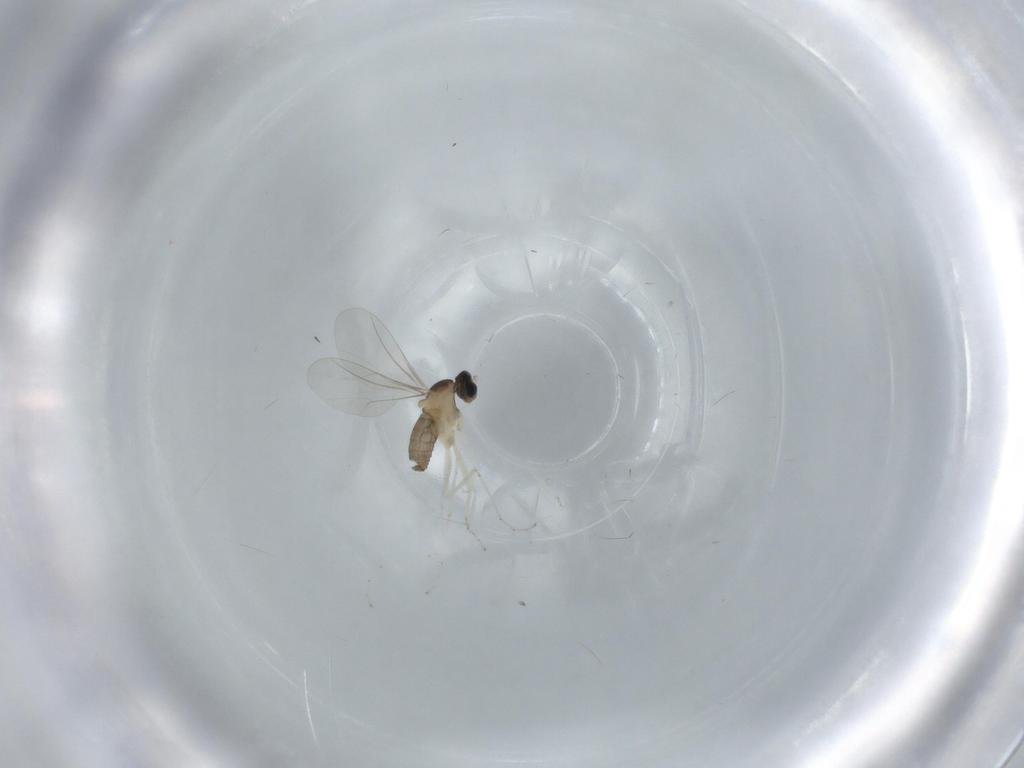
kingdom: Animalia
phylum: Arthropoda
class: Insecta
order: Diptera
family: Cecidomyiidae
